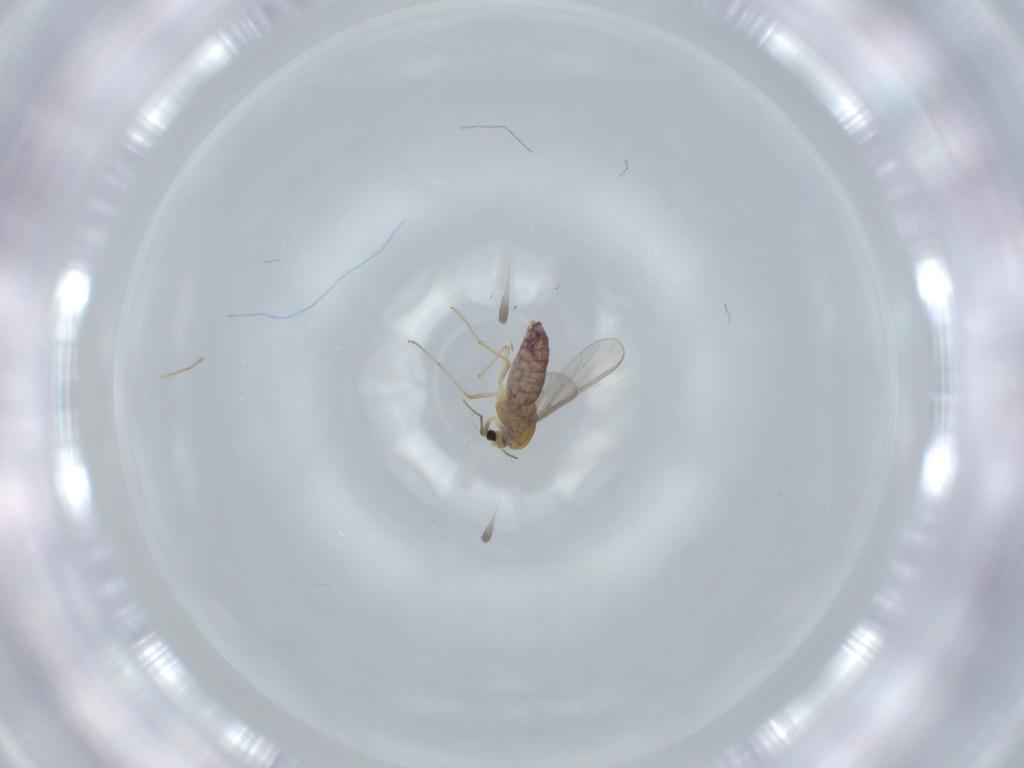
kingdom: Animalia
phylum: Arthropoda
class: Insecta
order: Diptera
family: Chironomidae
